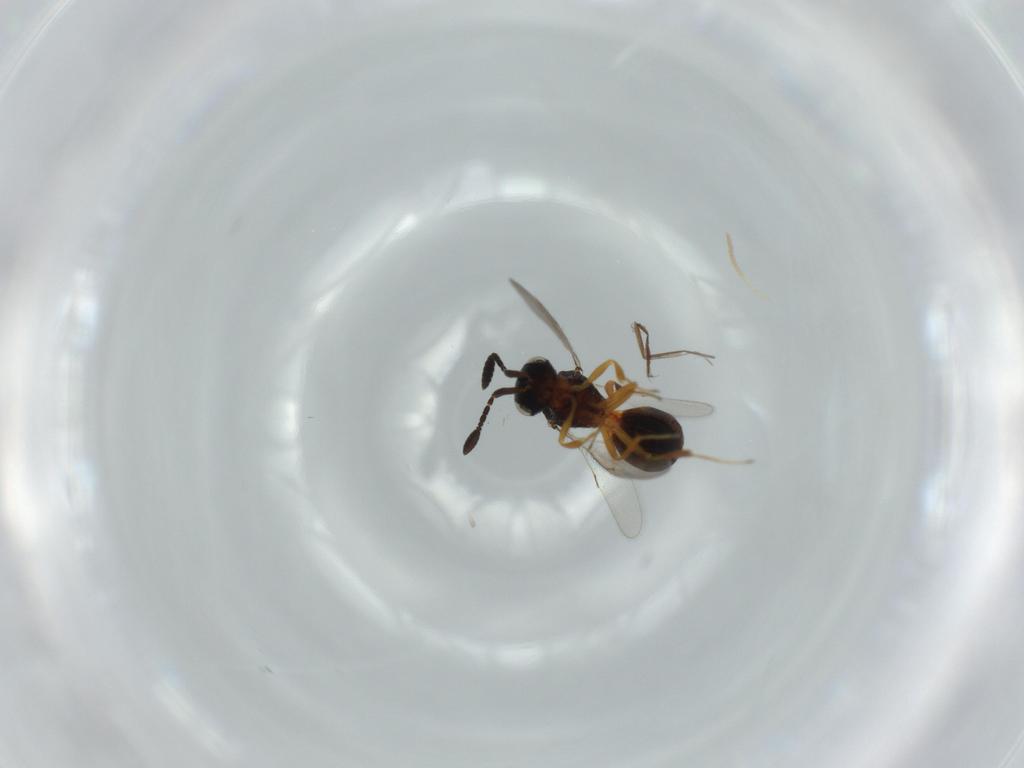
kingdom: Animalia
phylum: Arthropoda
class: Insecta
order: Hymenoptera
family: Scelionidae
